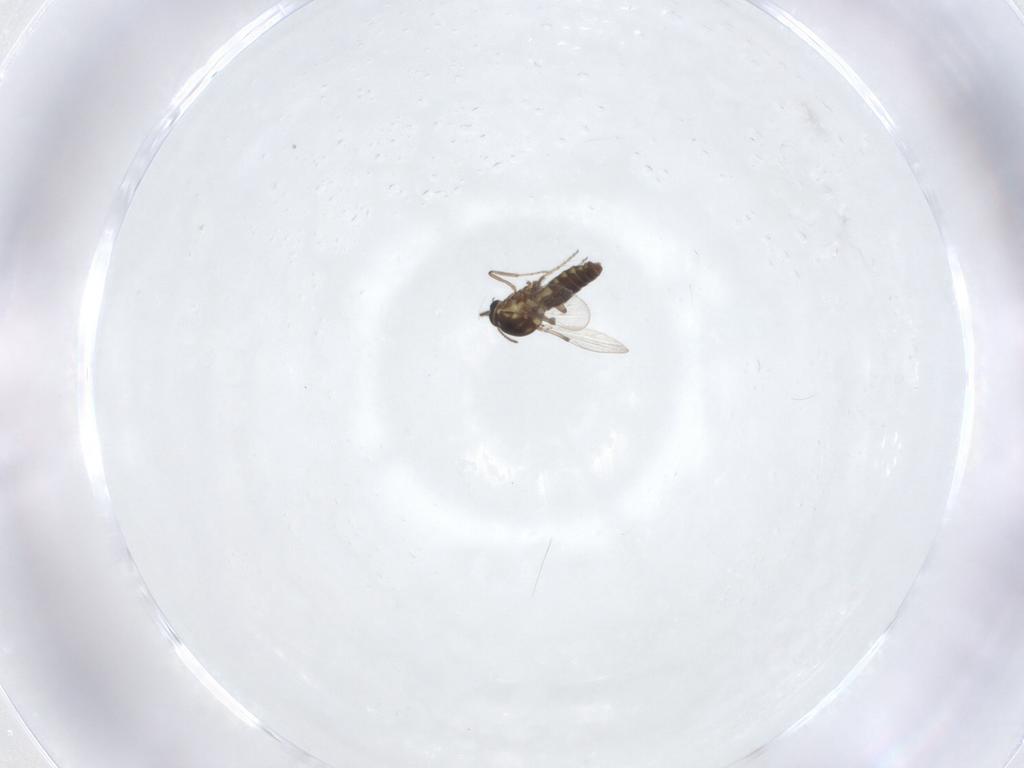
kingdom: Animalia
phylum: Arthropoda
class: Insecta
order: Diptera
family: Ceratopogonidae
